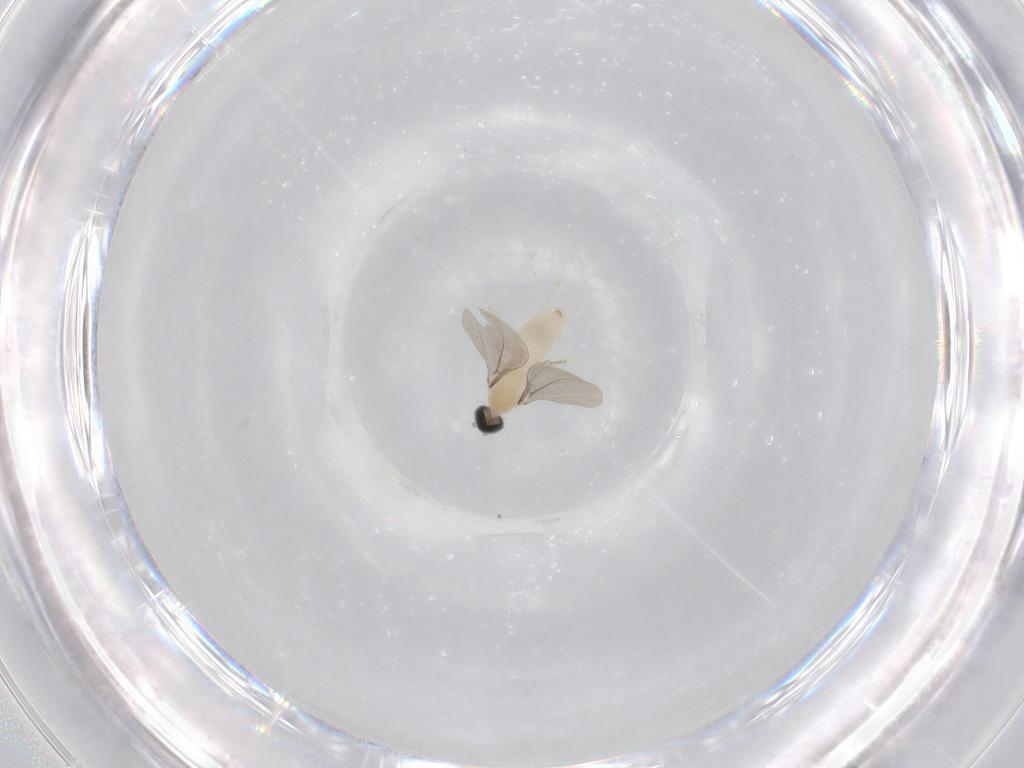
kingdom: Animalia
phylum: Arthropoda
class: Insecta
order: Diptera
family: Cecidomyiidae
